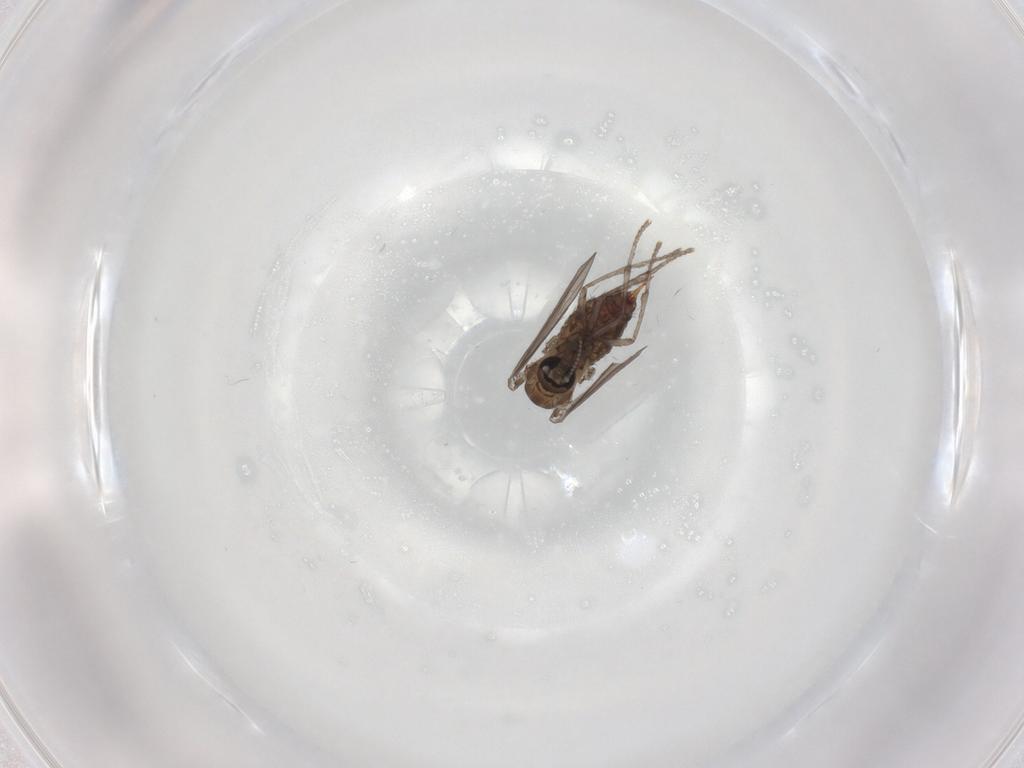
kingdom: Animalia
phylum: Arthropoda
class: Insecta
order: Diptera
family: Psychodidae
